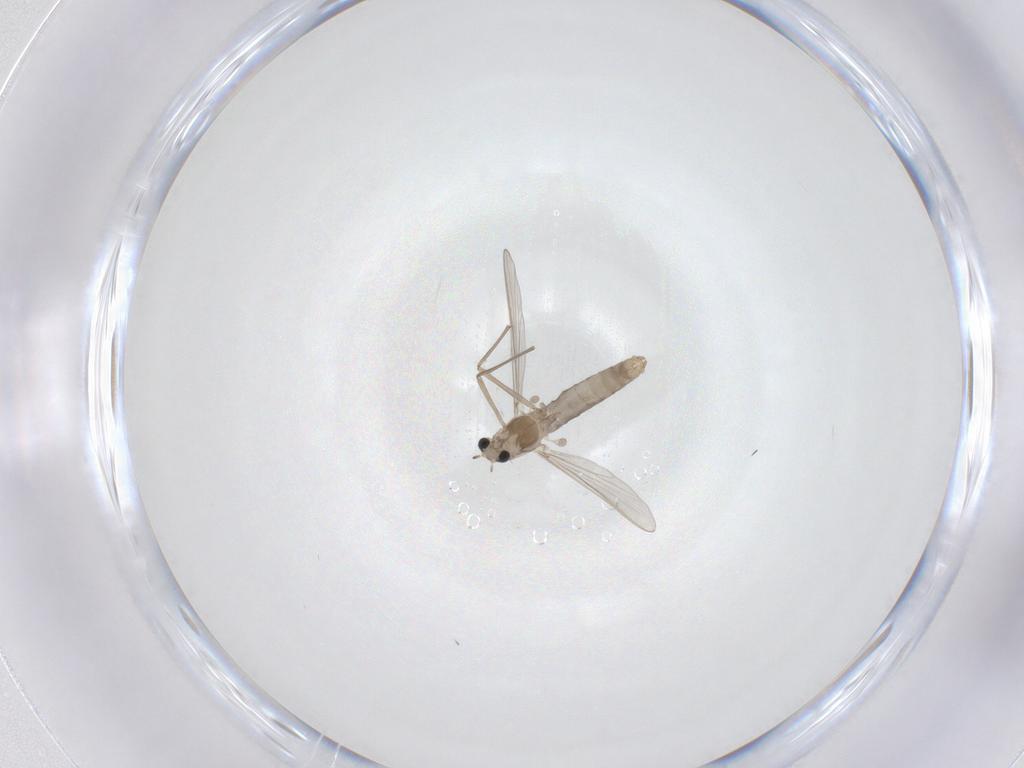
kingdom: Animalia
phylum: Arthropoda
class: Insecta
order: Diptera
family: Chironomidae
